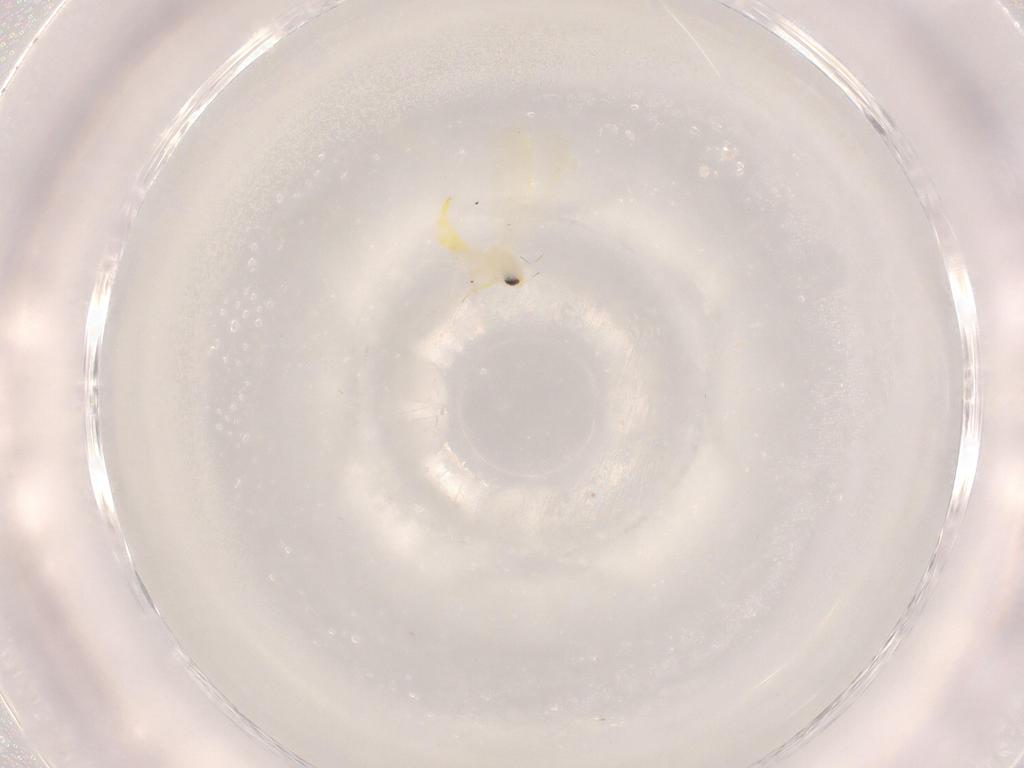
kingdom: Animalia
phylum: Arthropoda
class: Insecta
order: Hemiptera
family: Aleyrodidae
